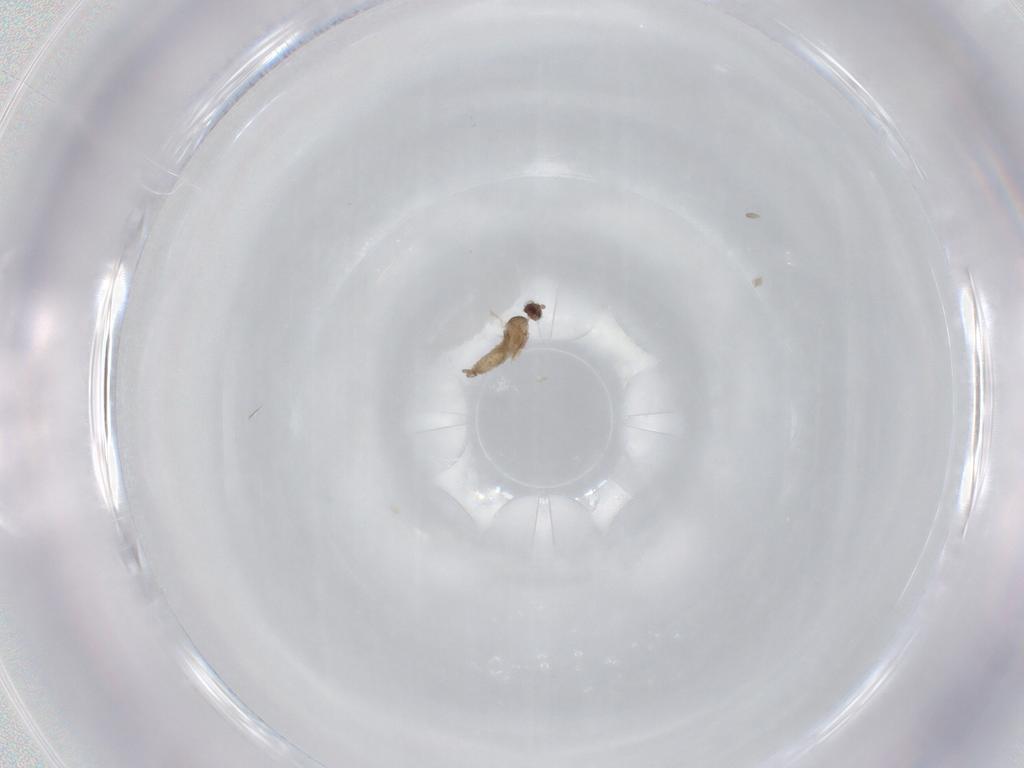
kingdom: Animalia
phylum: Arthropoda
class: Insecta
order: Diptera
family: Cecidomyiidae
